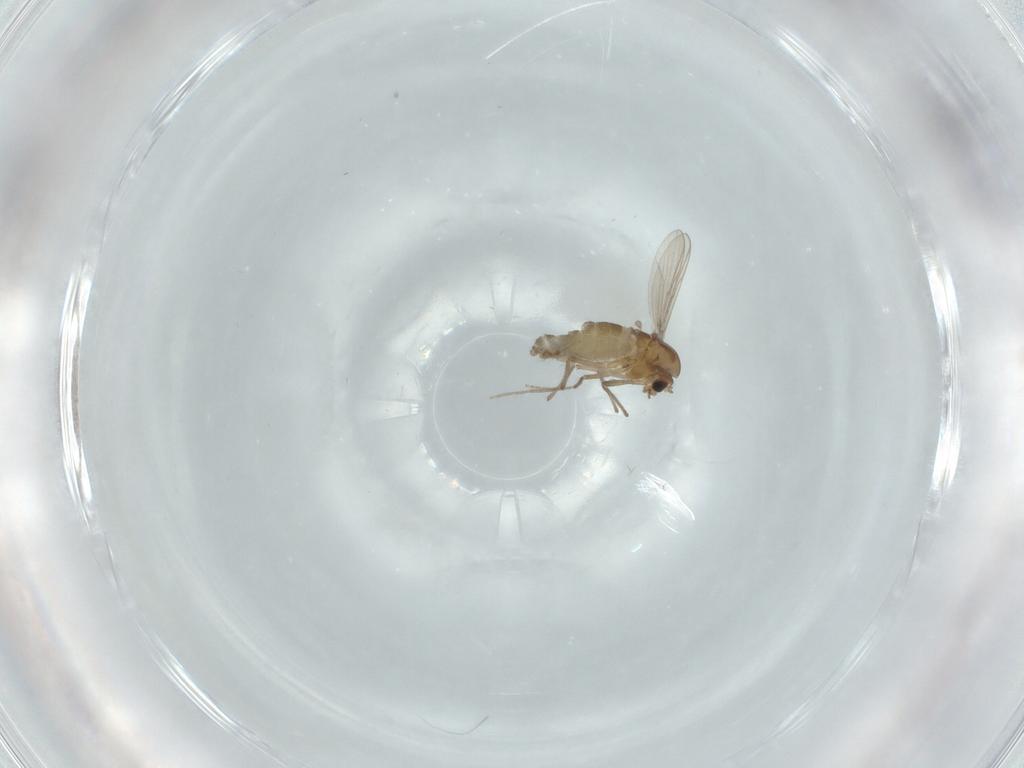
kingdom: Animalia
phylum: Arthropoda
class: Insecta
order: Diptera
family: Chironomidae
